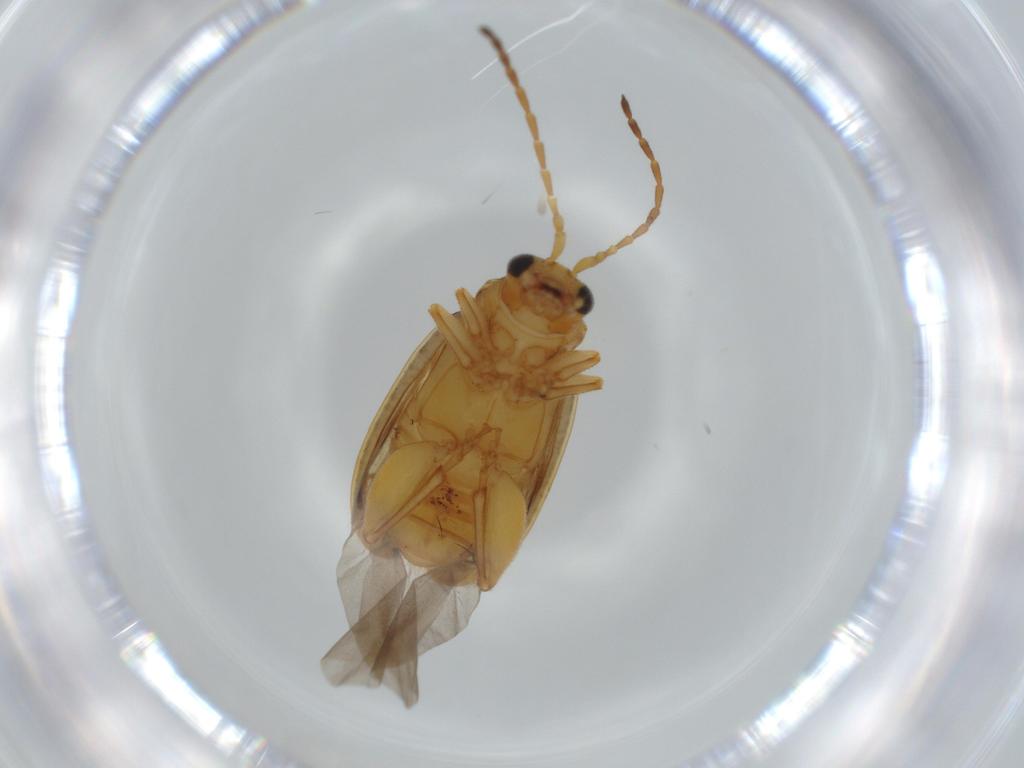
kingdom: Animalia
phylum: Arthropoda
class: Insecta
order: Coleoptera
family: Chrysomelidae
